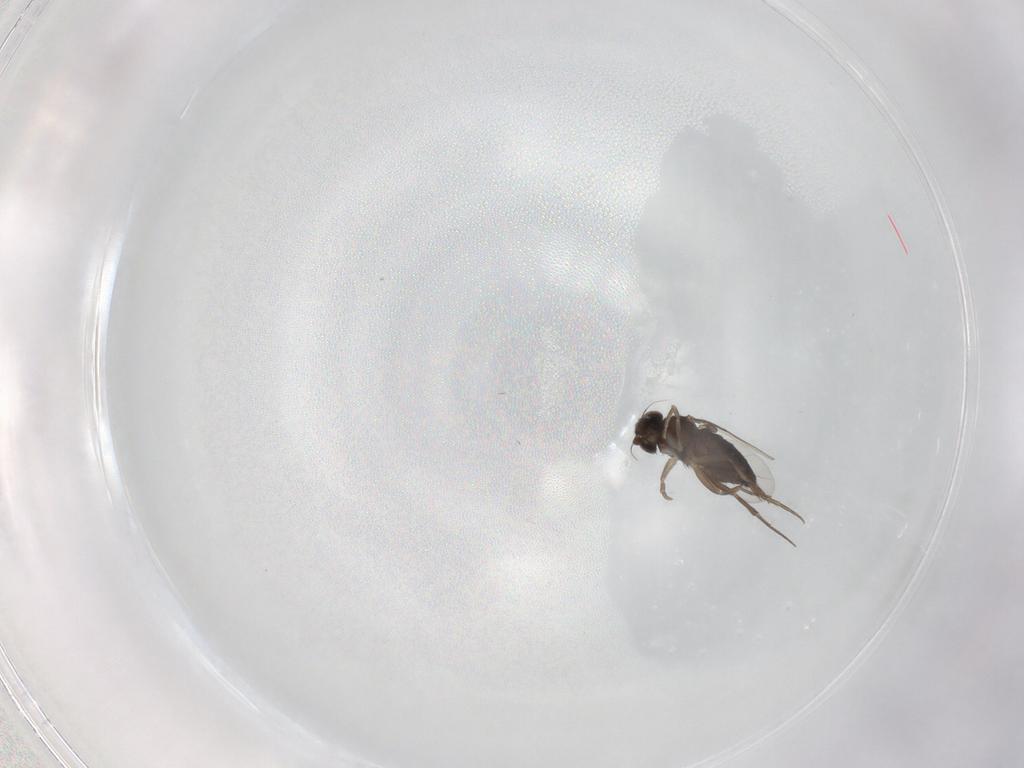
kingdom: Animalia
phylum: Arthropoda
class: Insecta
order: Diptera
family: Phoridae
